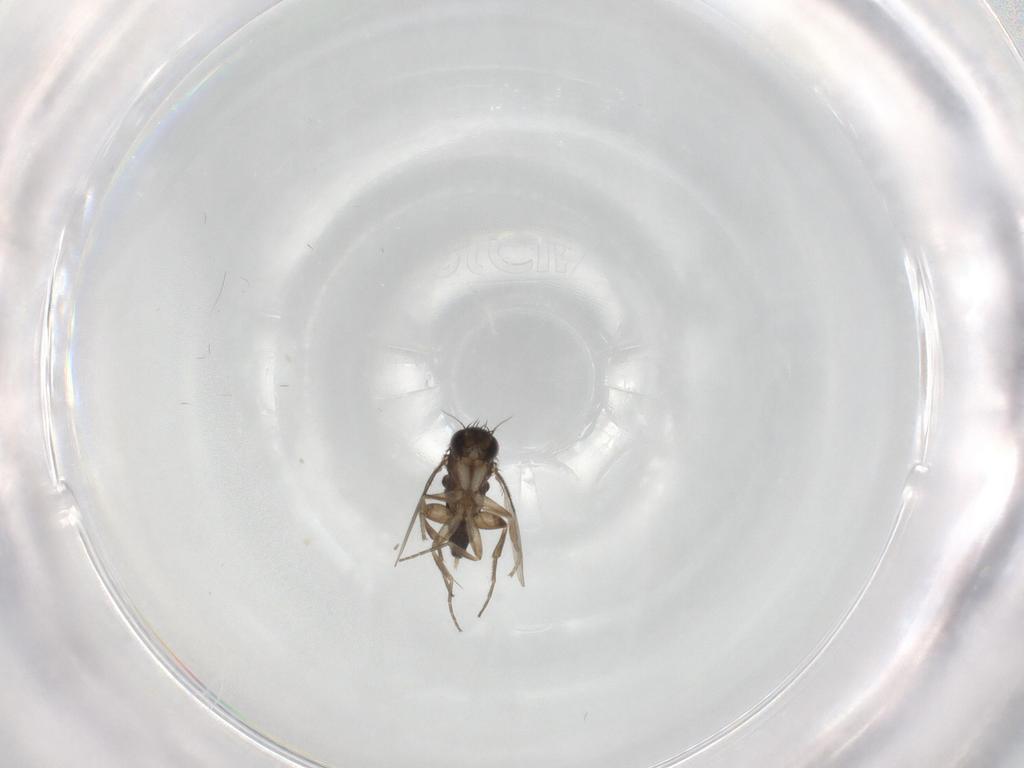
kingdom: Animalia
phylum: Arthropoda
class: Insecta
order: Diptera
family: Phoridae
